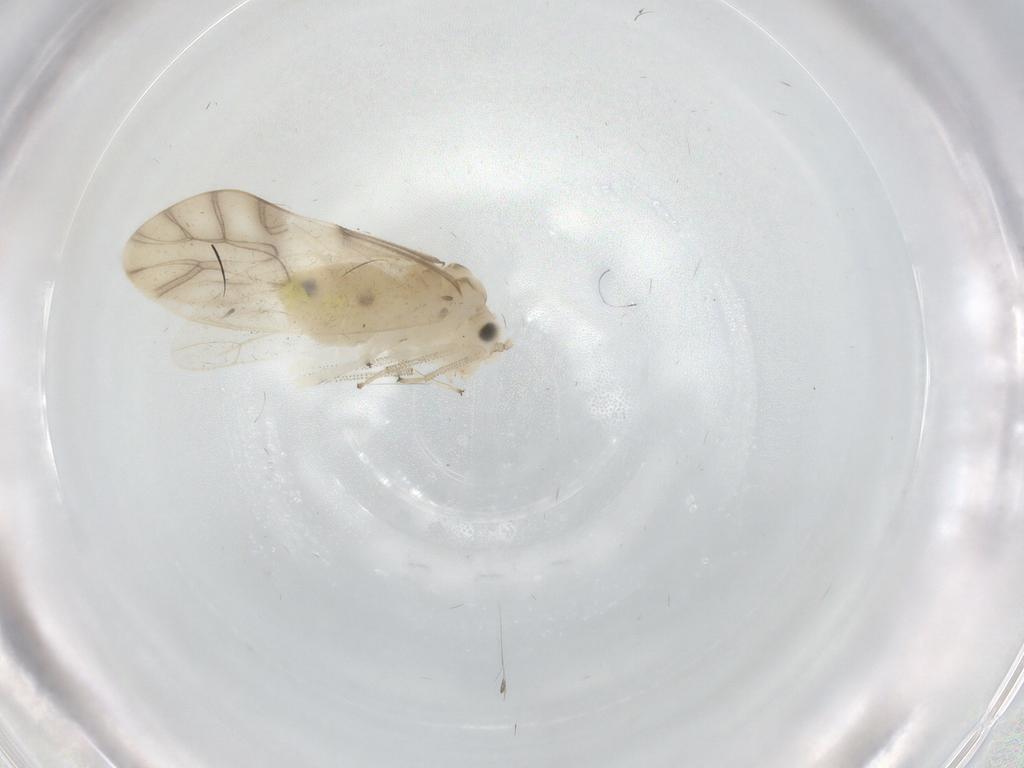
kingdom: Animalia
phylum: Arthropoda
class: Insecta
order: Psocodea
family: Caeciliusidae
